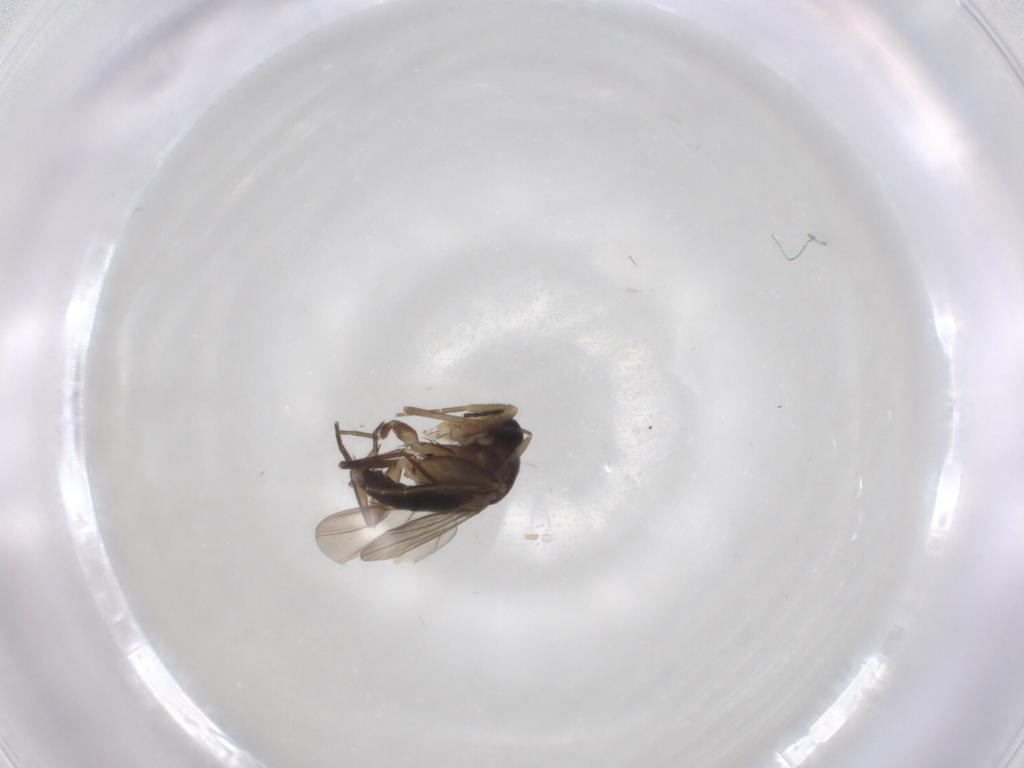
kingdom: Animalia
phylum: Arthropoda
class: Insecta
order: Diptera
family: Phoridae
